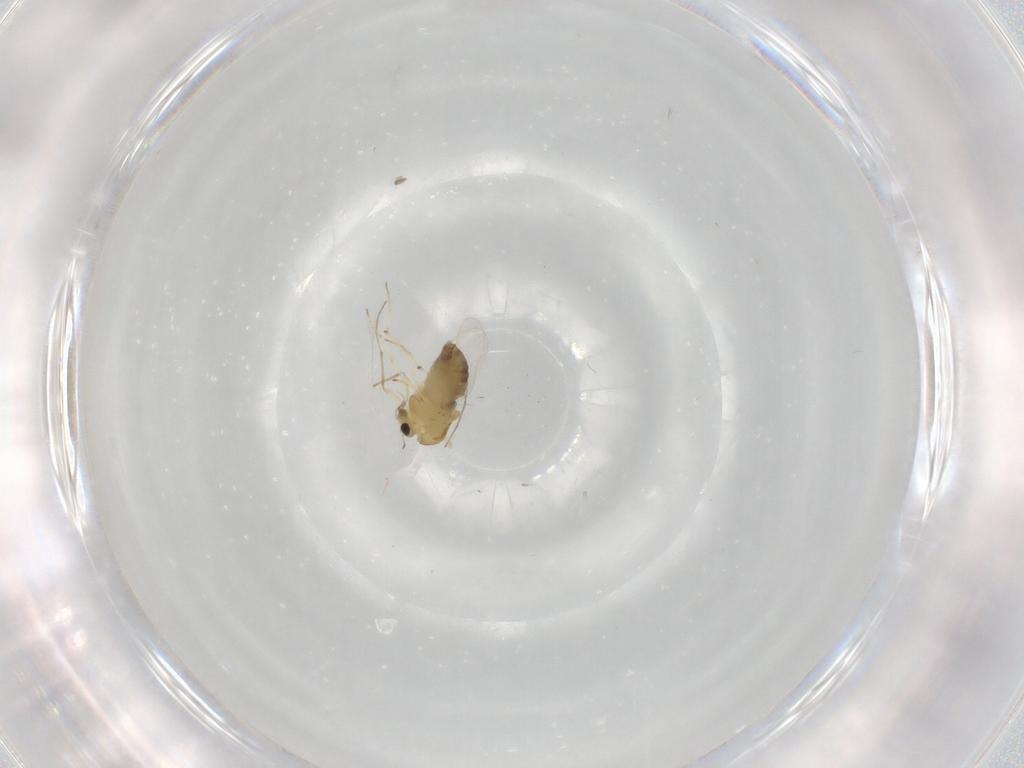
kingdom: Animalia
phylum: Arthropoda
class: Insecta
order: Diptera
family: Chironomidae
